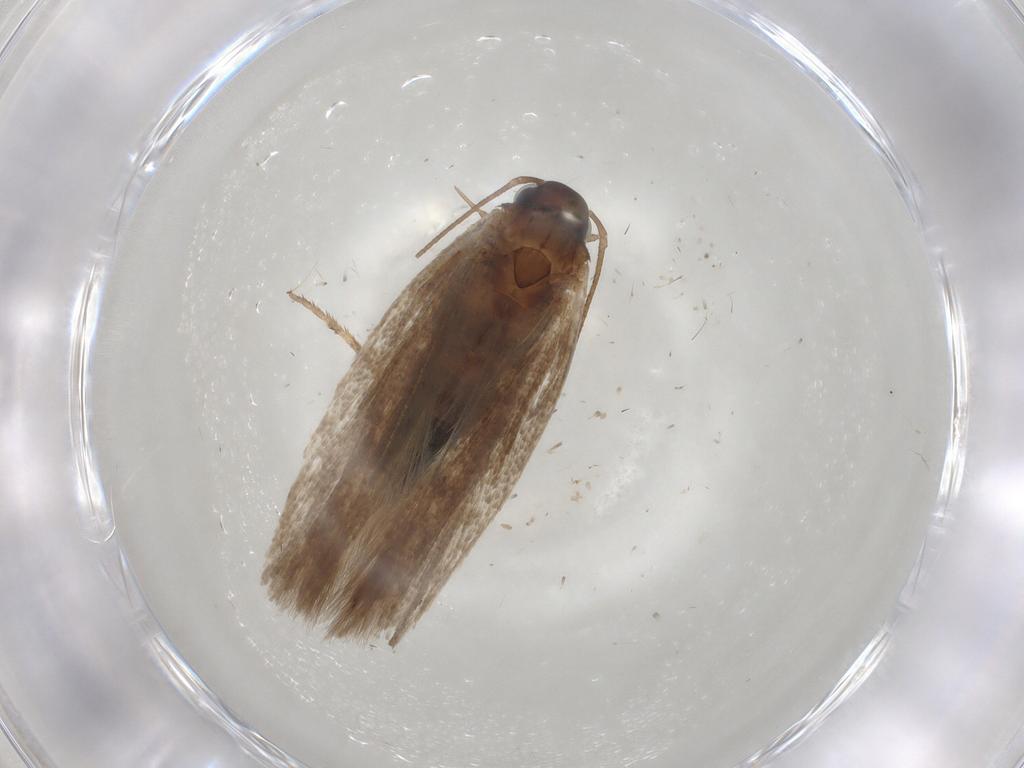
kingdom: Animalia
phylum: Arthropoda
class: Insecta
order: Lepidoptera
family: Gelechiidae
